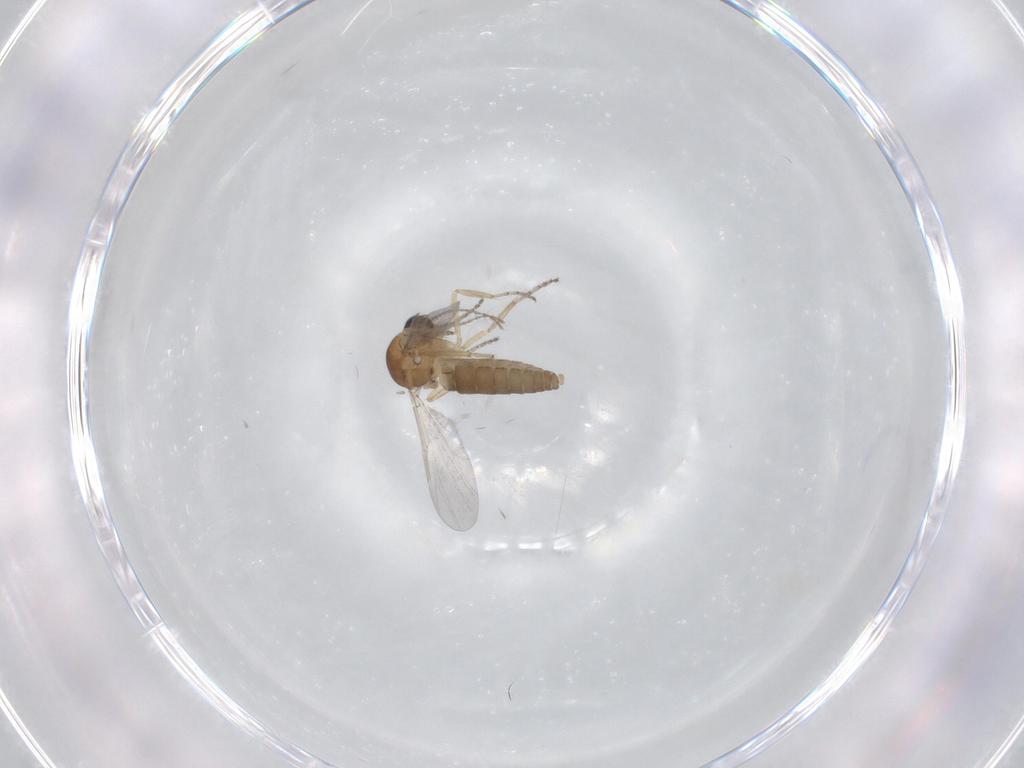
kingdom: Animalia
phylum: Arthropoda
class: Insecta
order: Diptera
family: Ceratopogonidae
